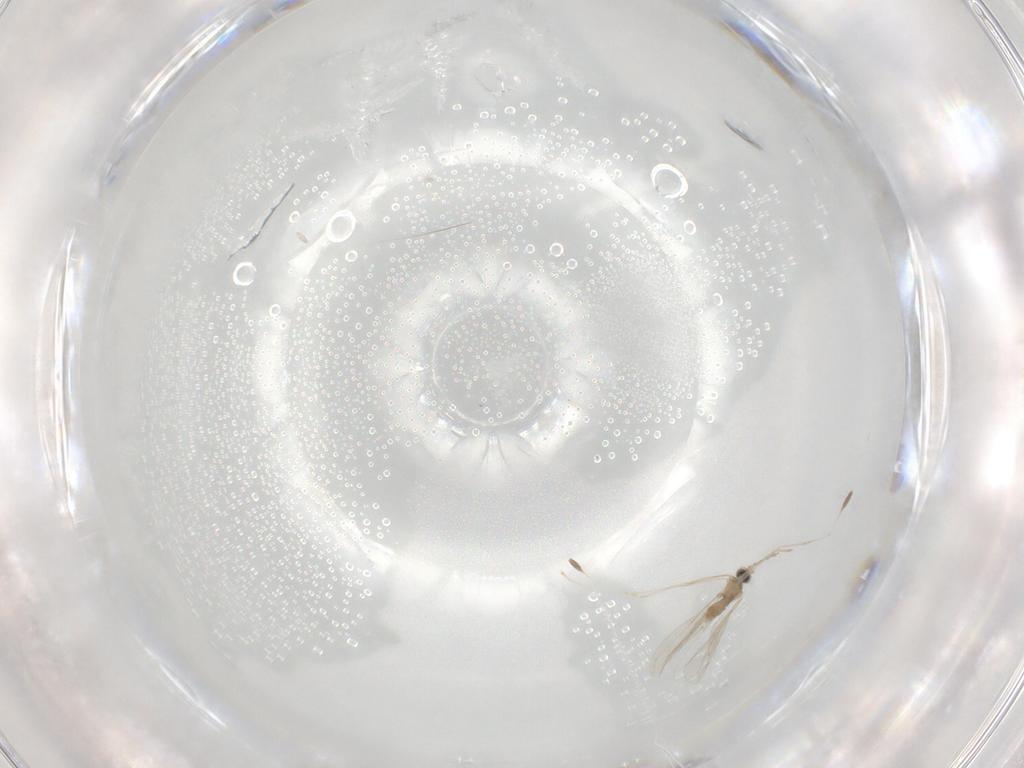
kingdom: Animalia
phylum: Arthropoda
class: Insecta
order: Diptera
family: Cecidomyiidae
